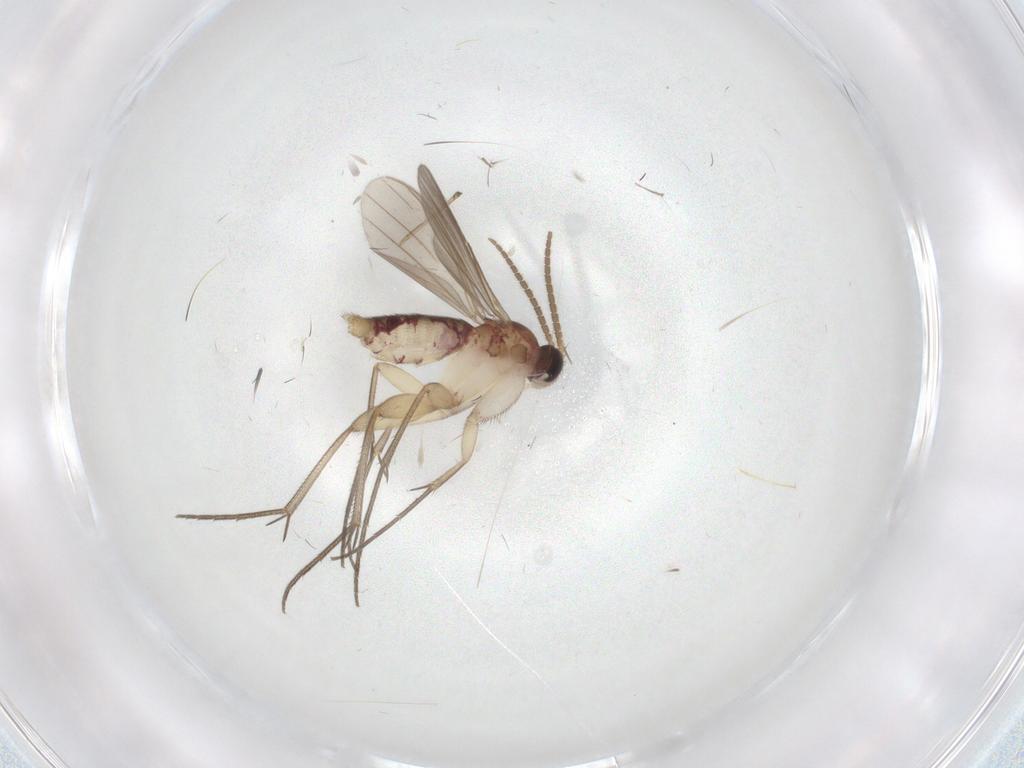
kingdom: Animalia
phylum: Arthropoda
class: Insecta
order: Diptera
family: Mycetophilidae
